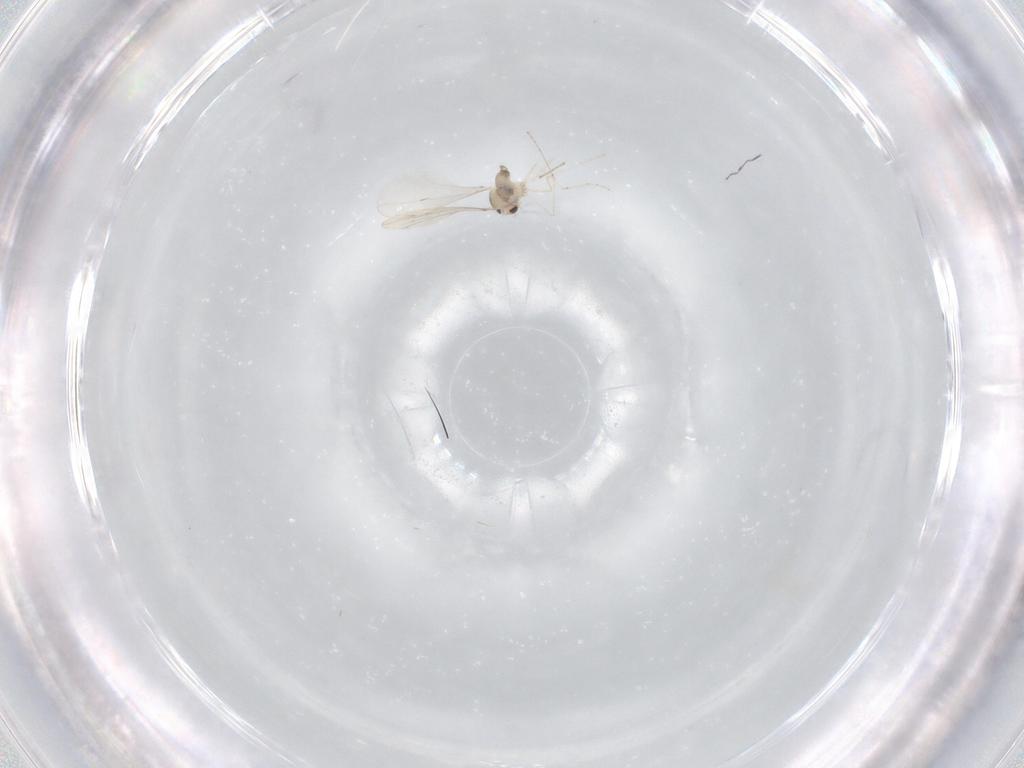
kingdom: Animalia
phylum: Arthropoda
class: Insecta
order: Diptera
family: Cecidomyiidae
